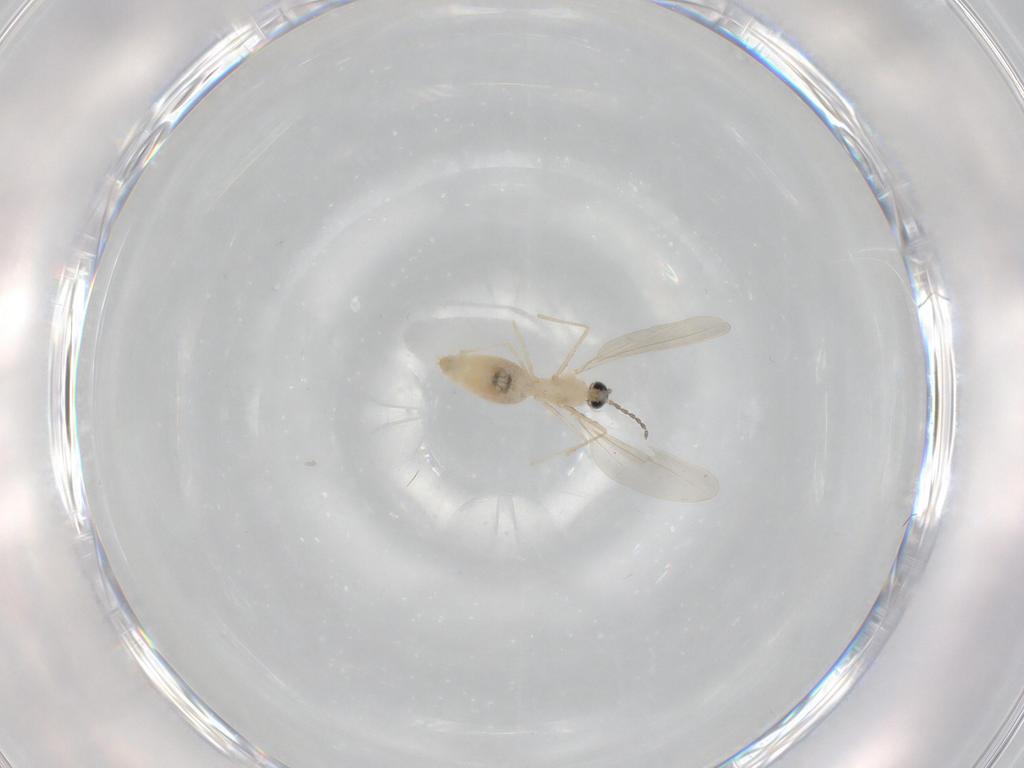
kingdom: Animalia
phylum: Arthropoda
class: Insecta
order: Diptera
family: Cecidomyiidae
